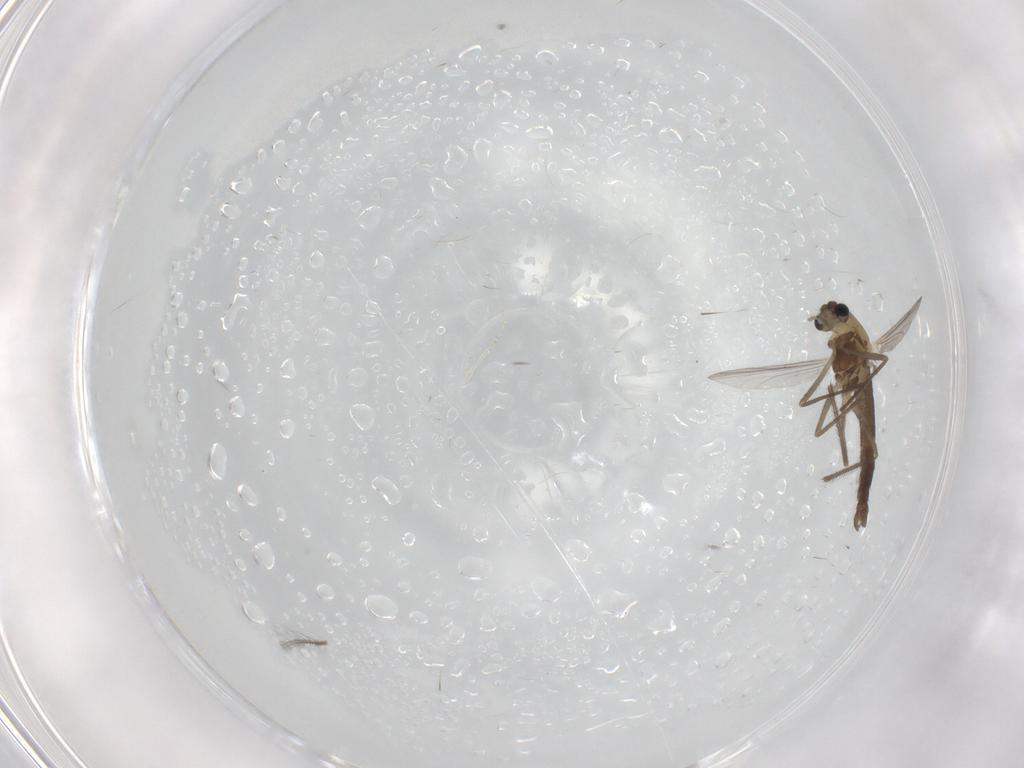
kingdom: Animalia
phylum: Arthropoda
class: Insecta
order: Diptera
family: Chironomidae
